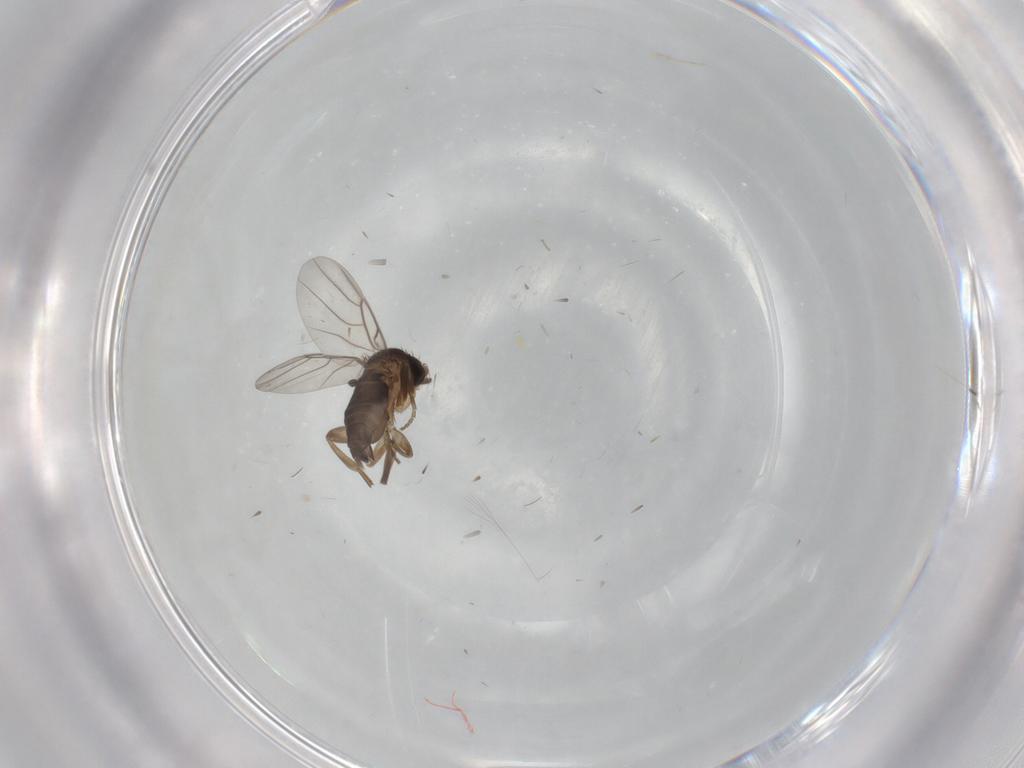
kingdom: Animalia
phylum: Arthropoda
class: Insecta
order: Diptera
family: Phoridae
